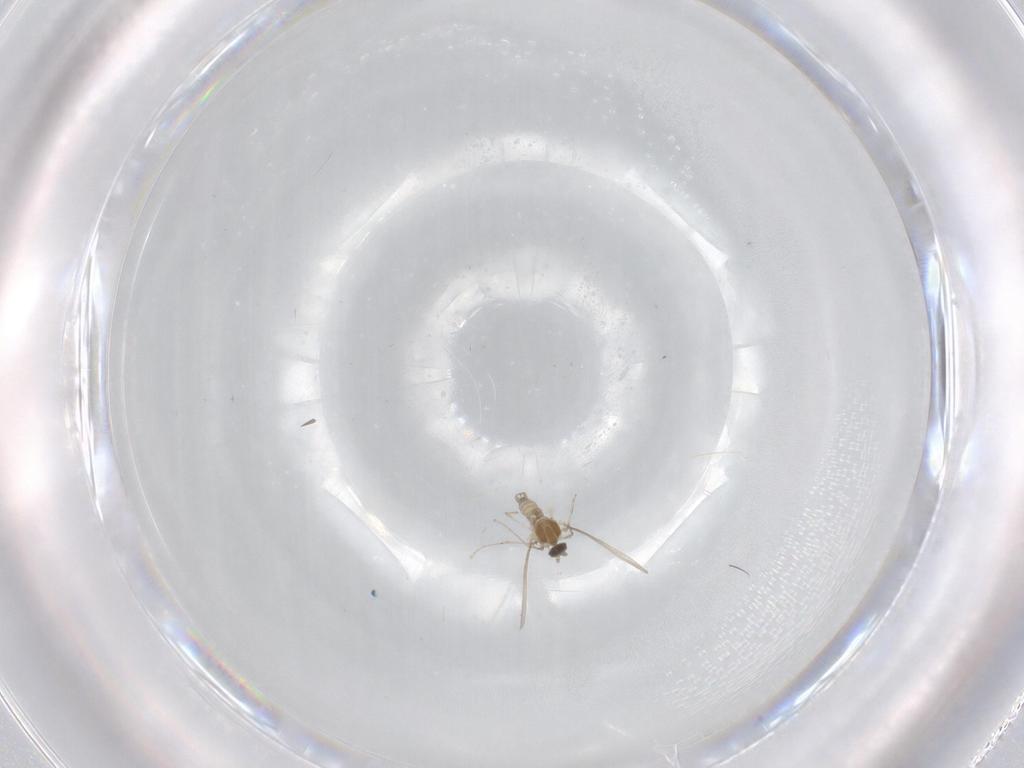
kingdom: Animalia
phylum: Arthropoda
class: Insecta
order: Diptera
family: Cecidomyiidae
